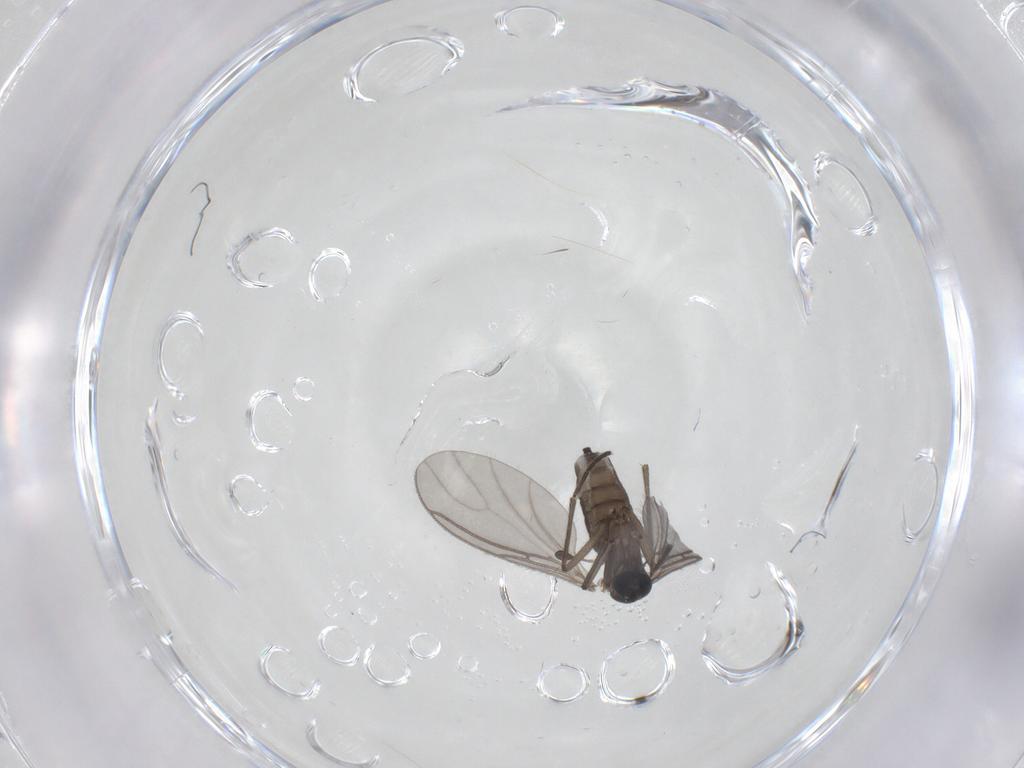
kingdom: Animalia
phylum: Arthropoda
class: Insecta
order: Diptera
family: Sciaridae
